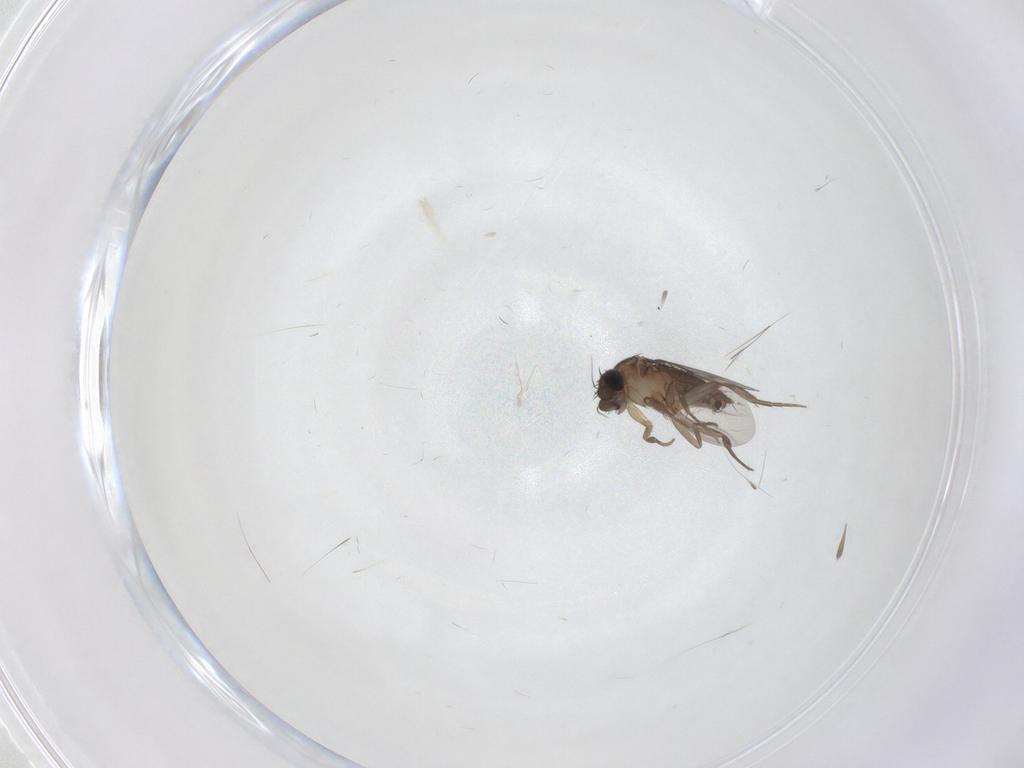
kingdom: Animalia
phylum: Arthropoda
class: Insecta
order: Diptera
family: Phoridae
